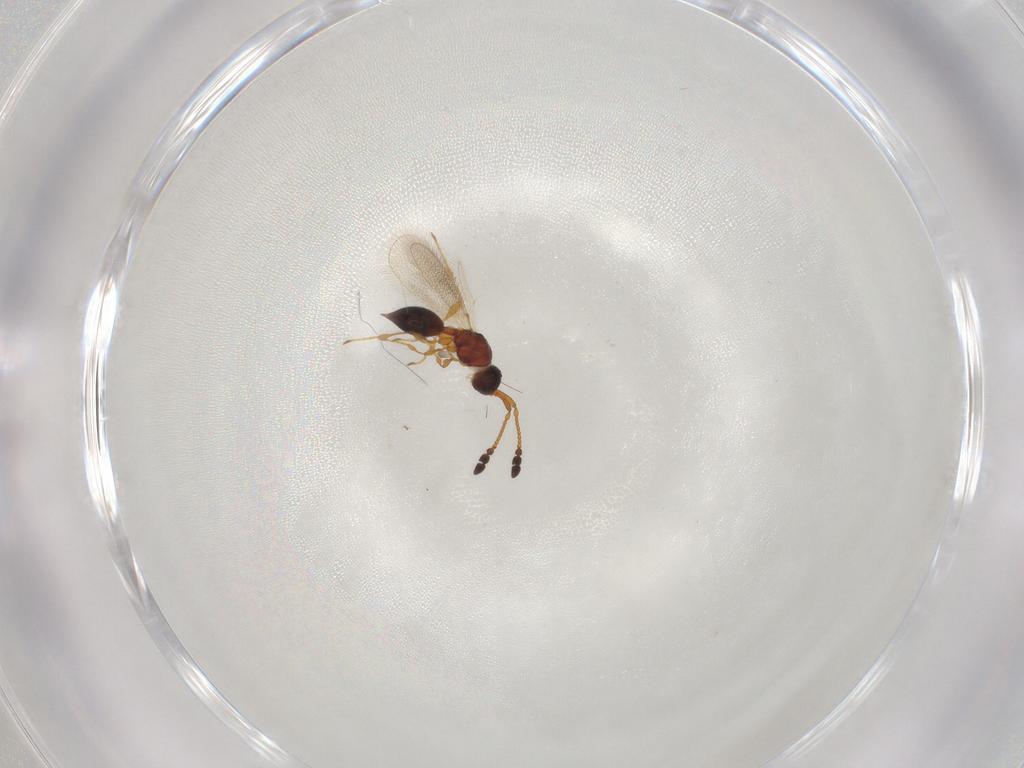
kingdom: Animalia
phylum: Arthropoda
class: Insecta
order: Hymenoptera
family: Diapriidae
